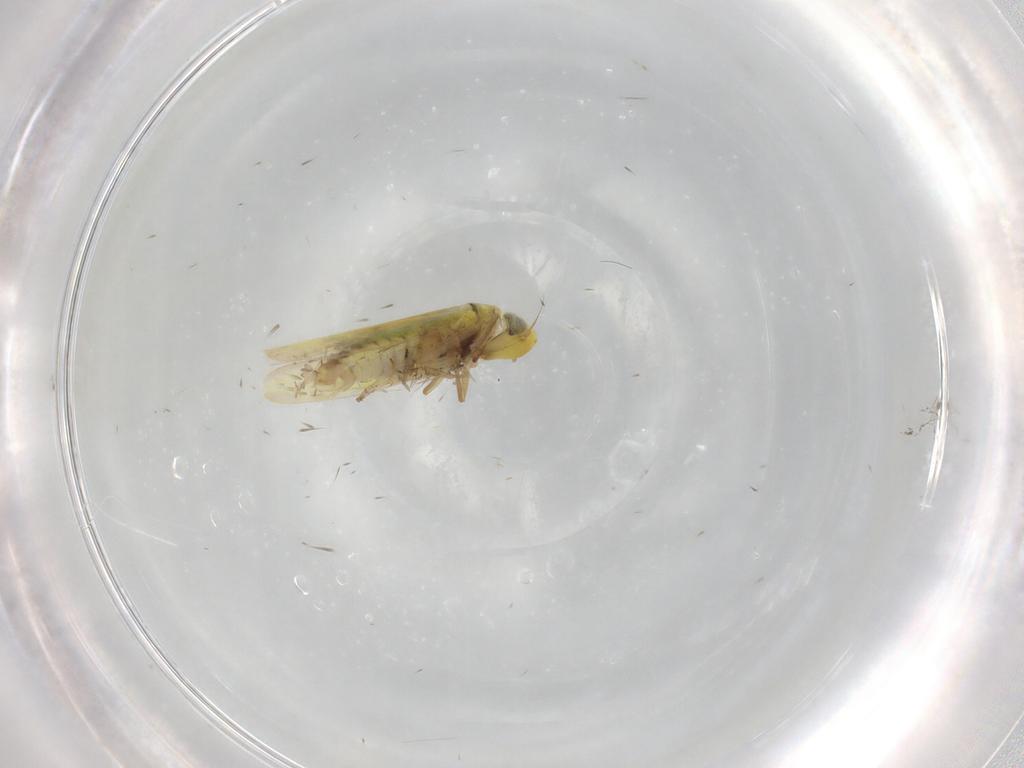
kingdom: Animalia
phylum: Arthropoda
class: Insecta
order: Hemiptera
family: Cicadellidae
